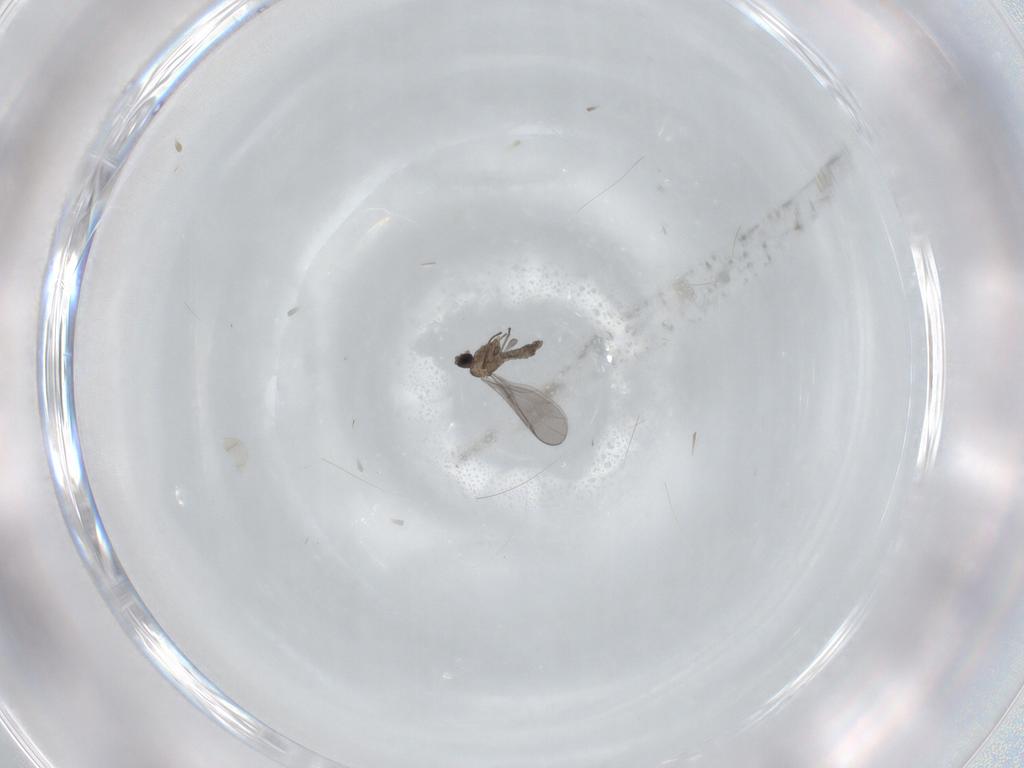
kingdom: Animalia
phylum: Arthropoda
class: Insecta
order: Diptera
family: Sciaridae
